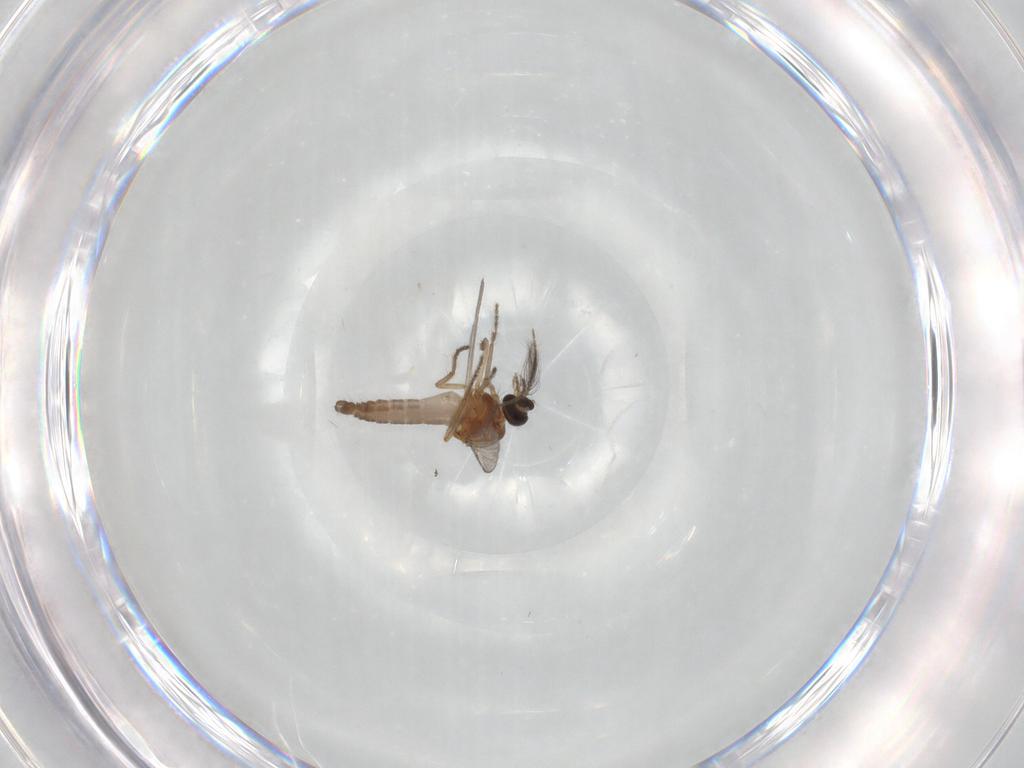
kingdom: Animalia
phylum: Arthropoda
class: Insecta
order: Diptera
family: Ceratopogonidae
